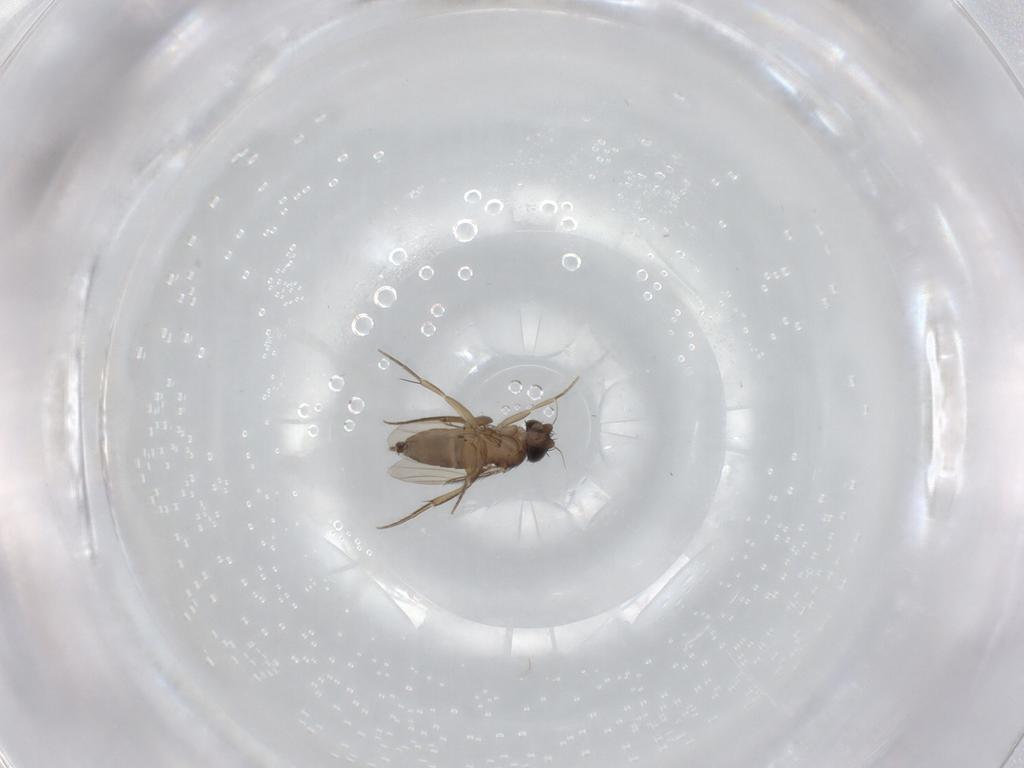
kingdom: Animalia
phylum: Arthropoda
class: Insecta
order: Diptera
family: Phoridae
